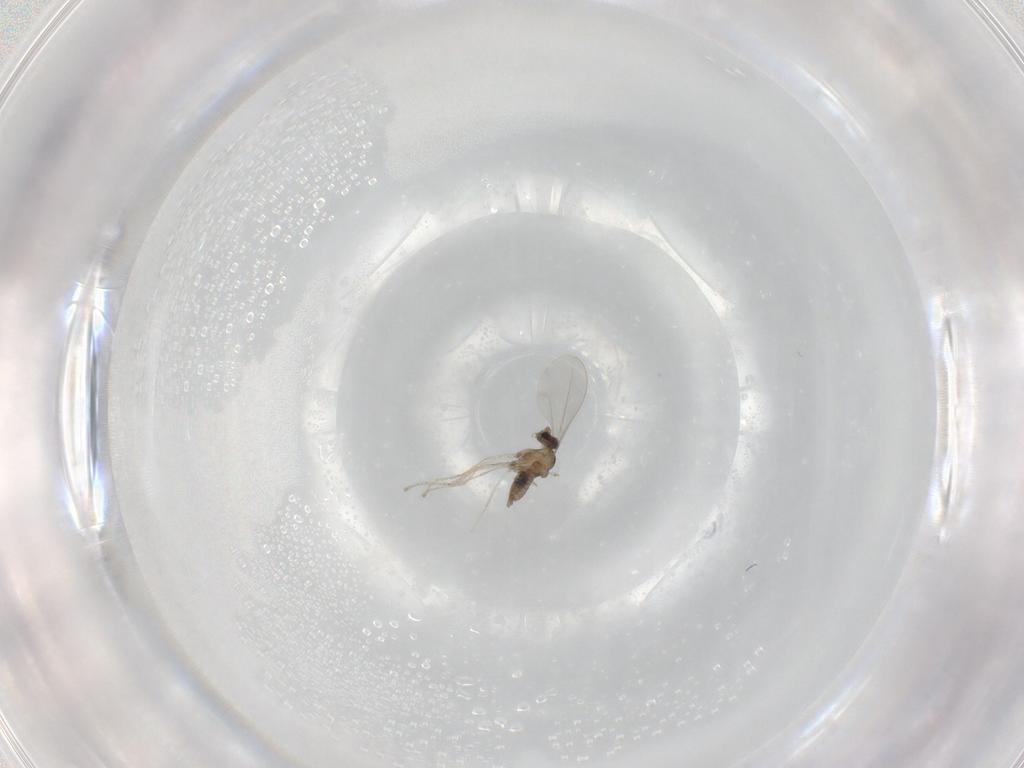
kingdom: Animalia
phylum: Arthropoda
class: Insecta
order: Diptera
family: Cecidomyiidae
